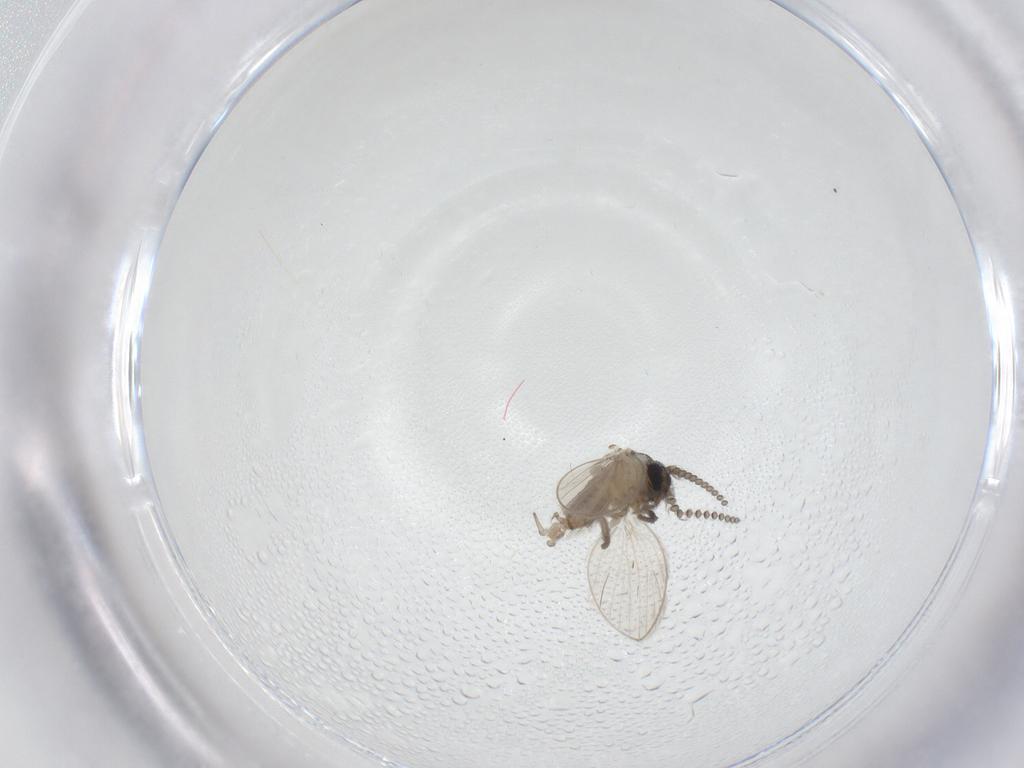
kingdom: Animalia
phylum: Arthropoda
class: Insecta
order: Diptera
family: Psychodidae
